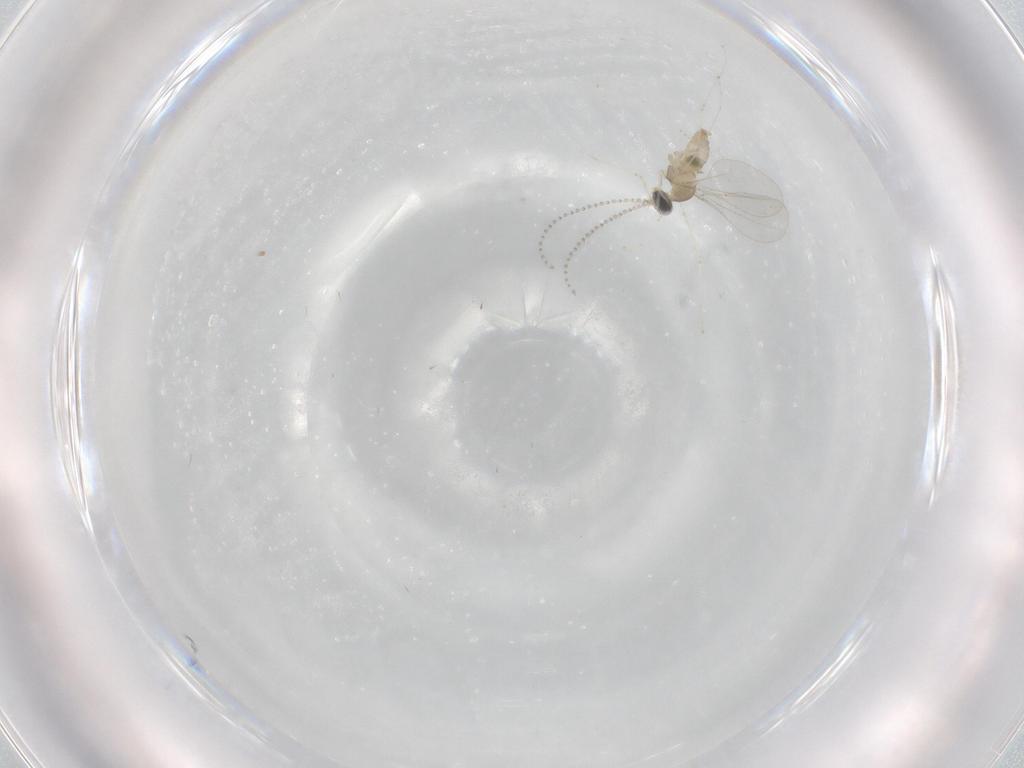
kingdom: Animalia
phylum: Arthropoda
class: Insecta
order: Diptera
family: Cecidomyiidae
